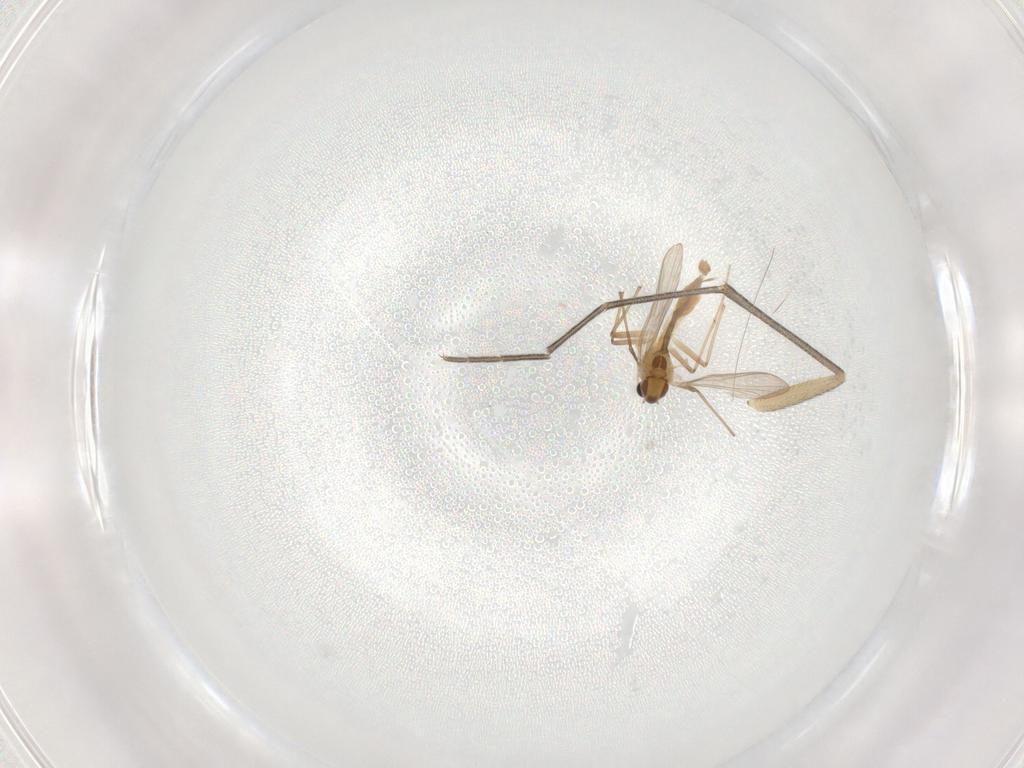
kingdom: Animalia
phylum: Arthropoda
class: Insecta
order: Diptera
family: Mycetophilidae
